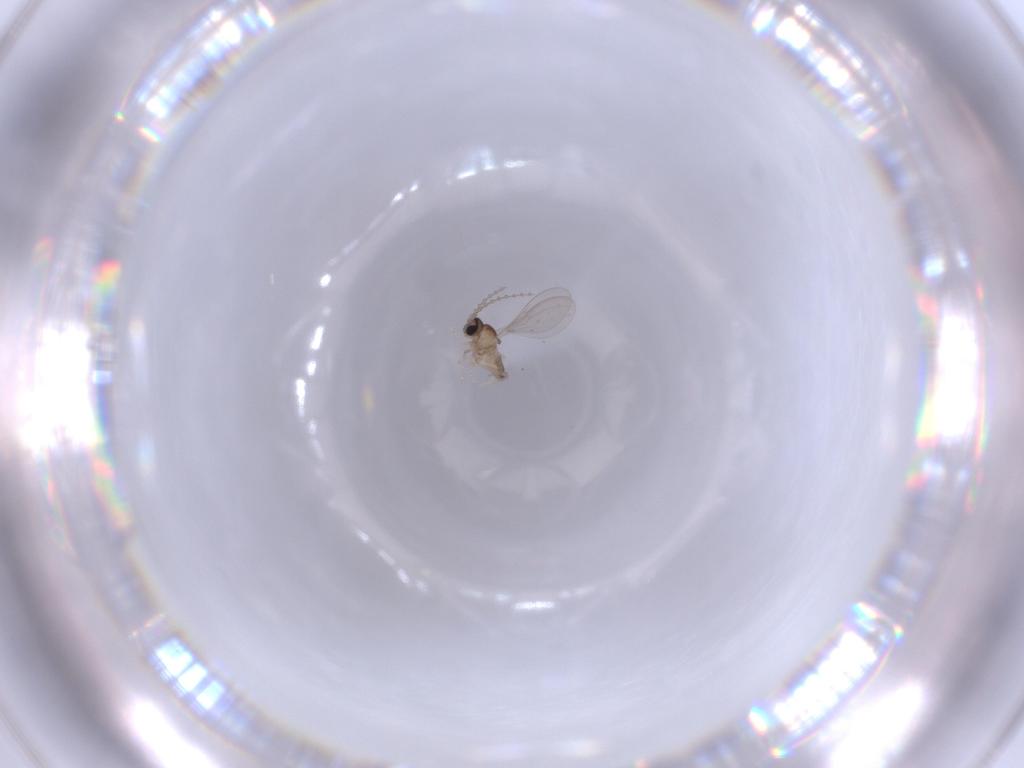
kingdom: Animalia
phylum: Arthropoda
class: Insecta
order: Diptera
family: Cecidomyiidae
